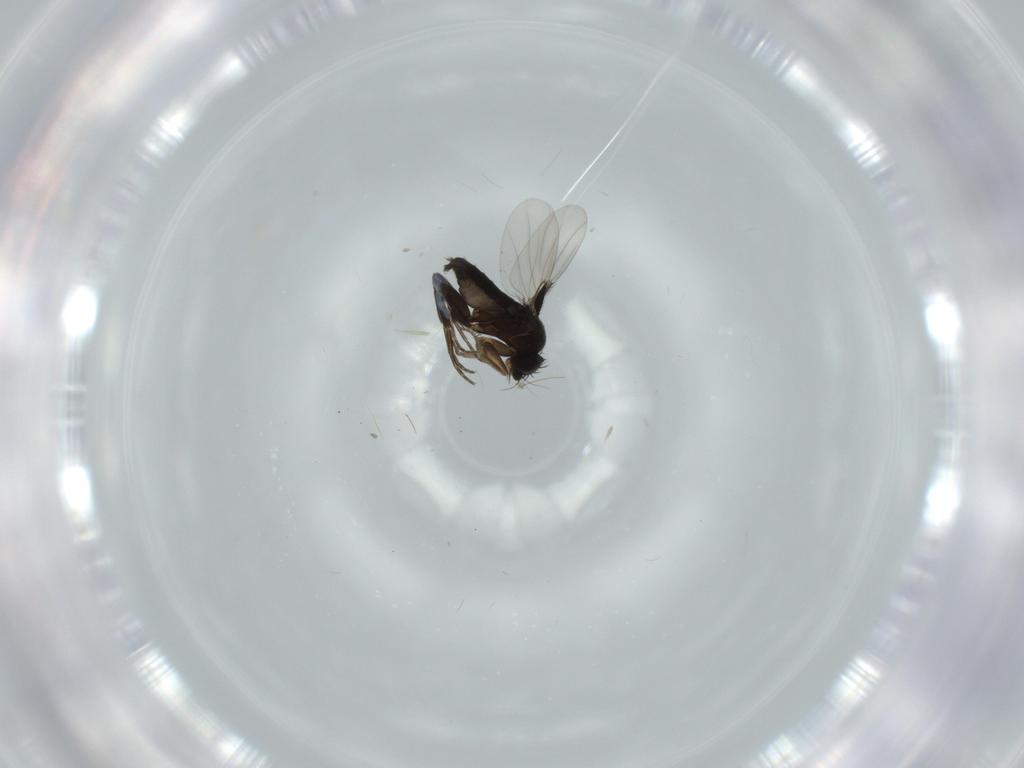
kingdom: Animalia
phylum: Arthropoda
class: Insecta
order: Diptera
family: Phoridae
